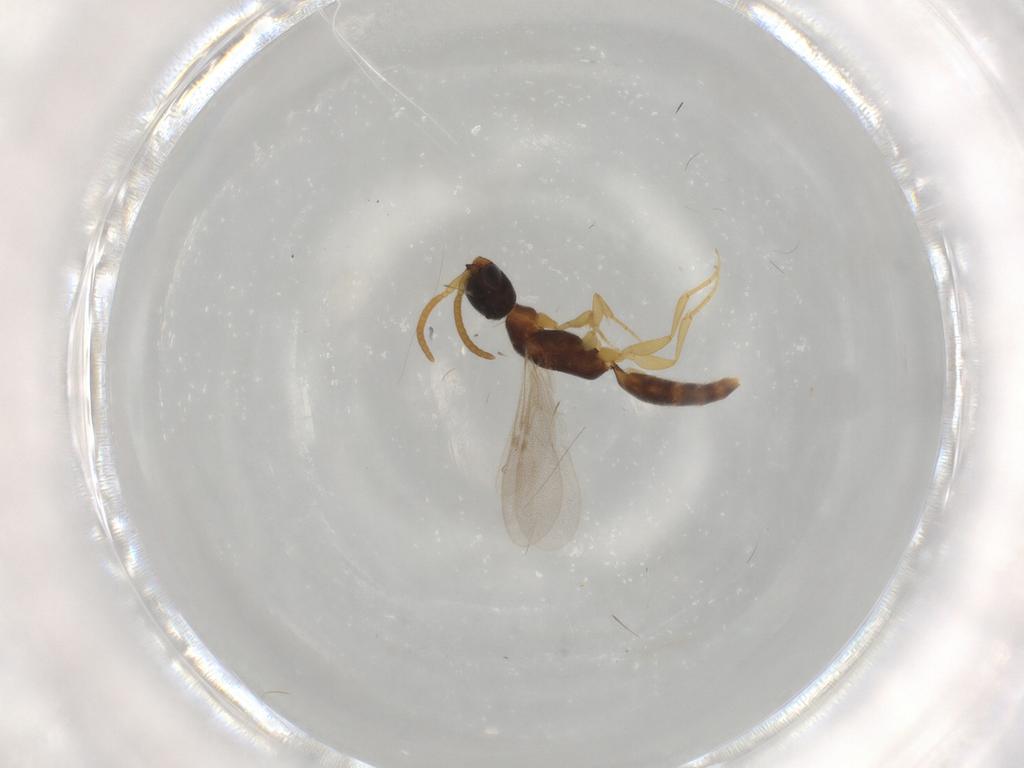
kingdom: Animalia
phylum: Arthropoda
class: Insecta
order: Hymenoptera
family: Bethylidae
